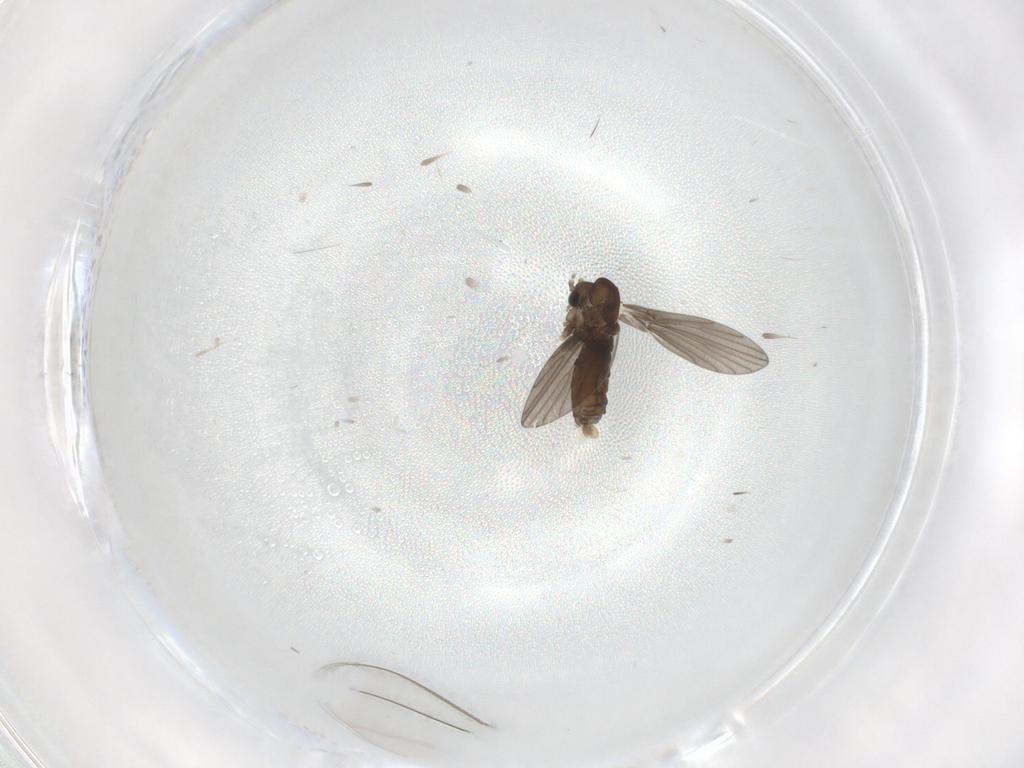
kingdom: Animalia
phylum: Arthropoda
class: Insecta
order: Diptera
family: Cecidomyiidae
